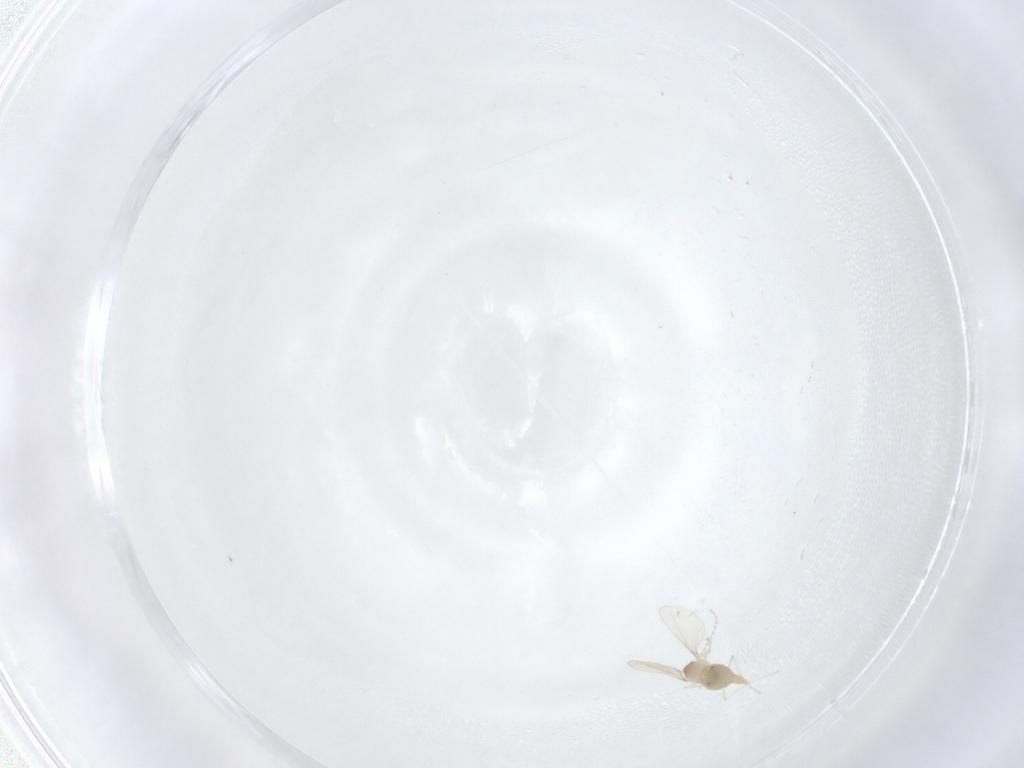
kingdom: Animalia
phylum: Arthropoda
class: Insecta
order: Diptera
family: Cecidomyiidae
